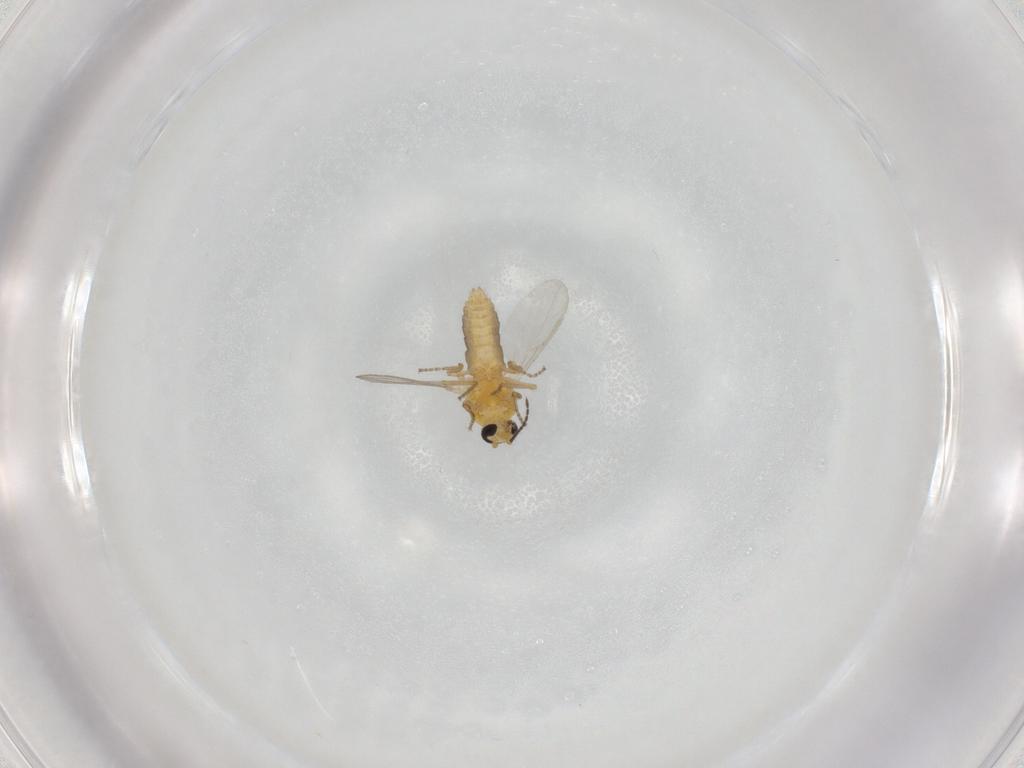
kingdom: Animalia
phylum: Arthropoda
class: Insecta
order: Diptera
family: Ceratopogonidae
